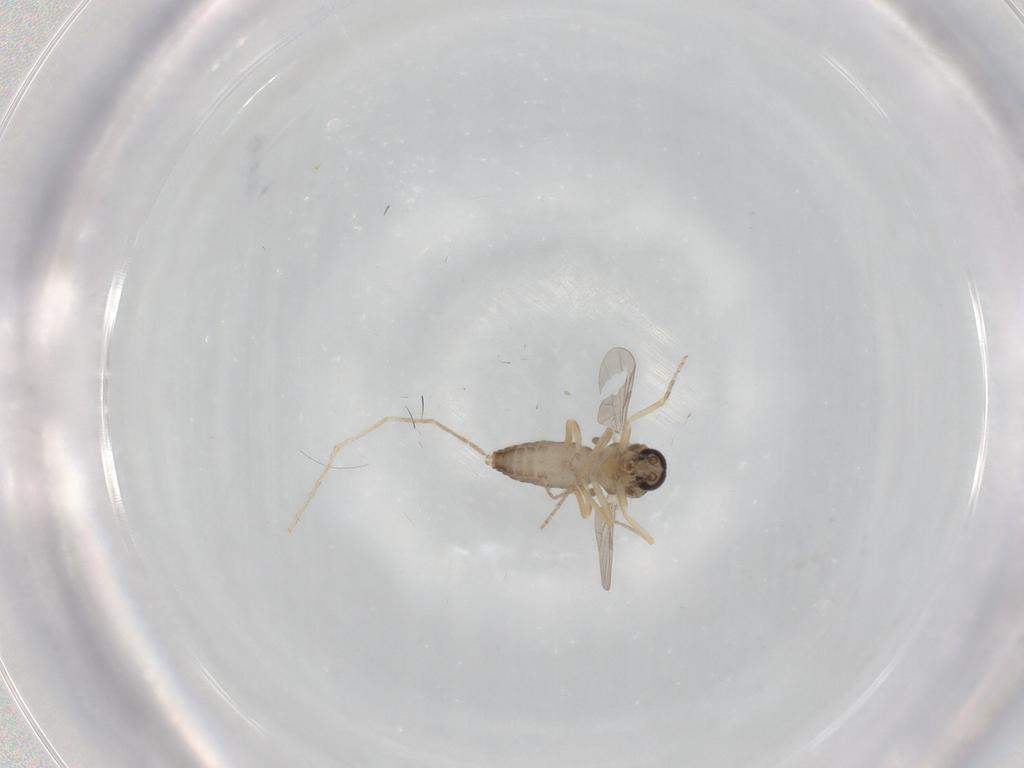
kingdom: Animalia
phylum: Arthropoda
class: Insecta
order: Diptera
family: Ceratopogonidae
